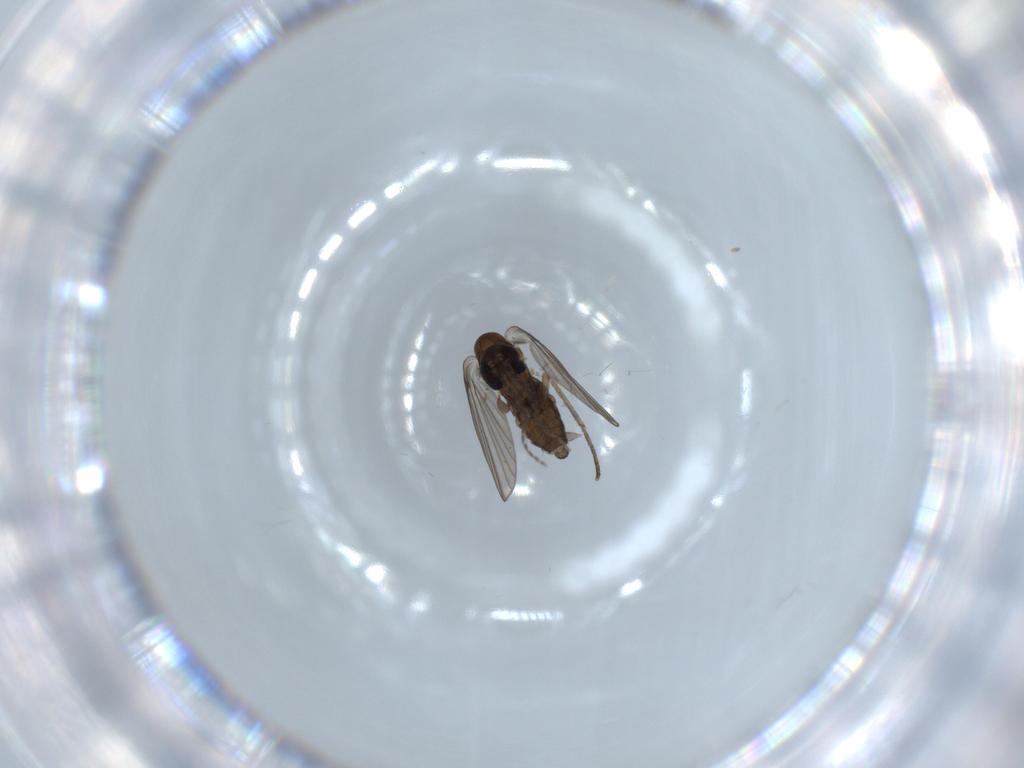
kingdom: Animalia
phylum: Arthropoda
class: Insecta
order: Diptera
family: Psychodidae
